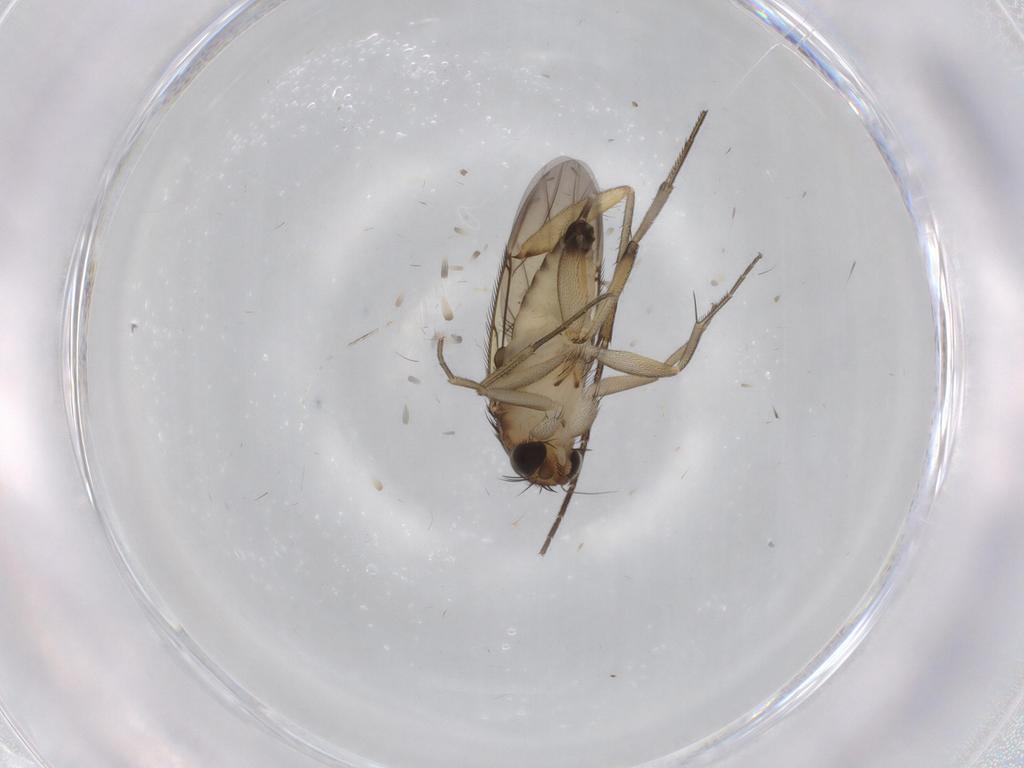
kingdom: Animalia
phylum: Arthropoda
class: Insecta
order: Diptera
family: Phoridae
